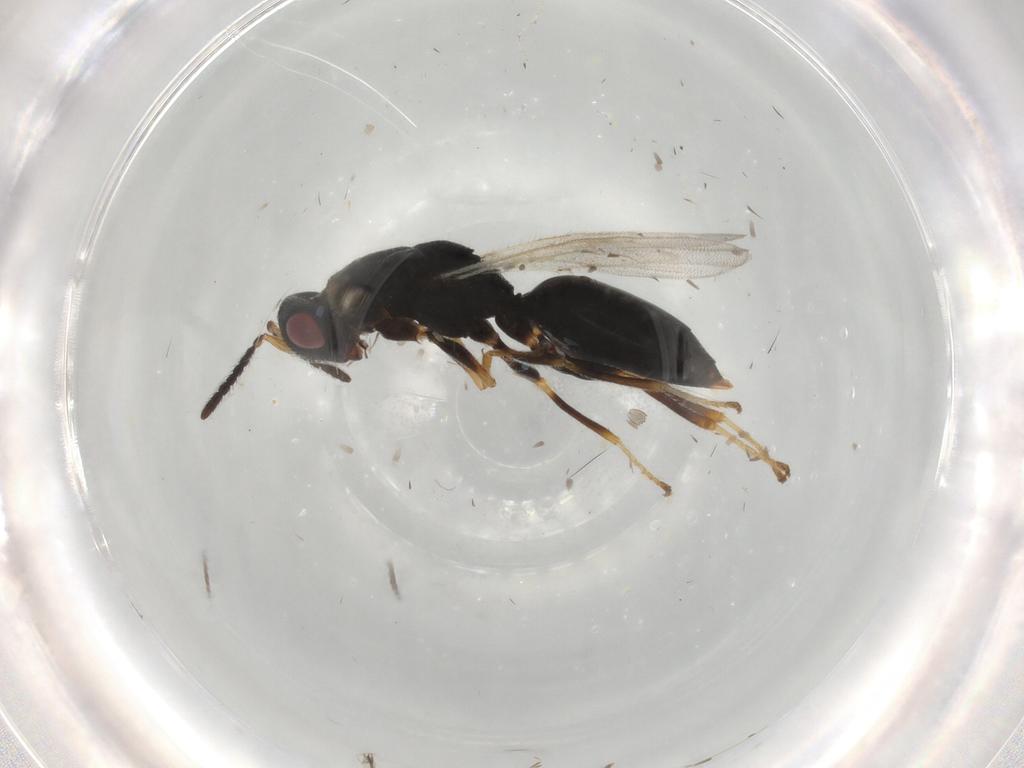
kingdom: Animalia
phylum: Arthropoda
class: Insecta
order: Hymenoptera
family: Eurytomidae
